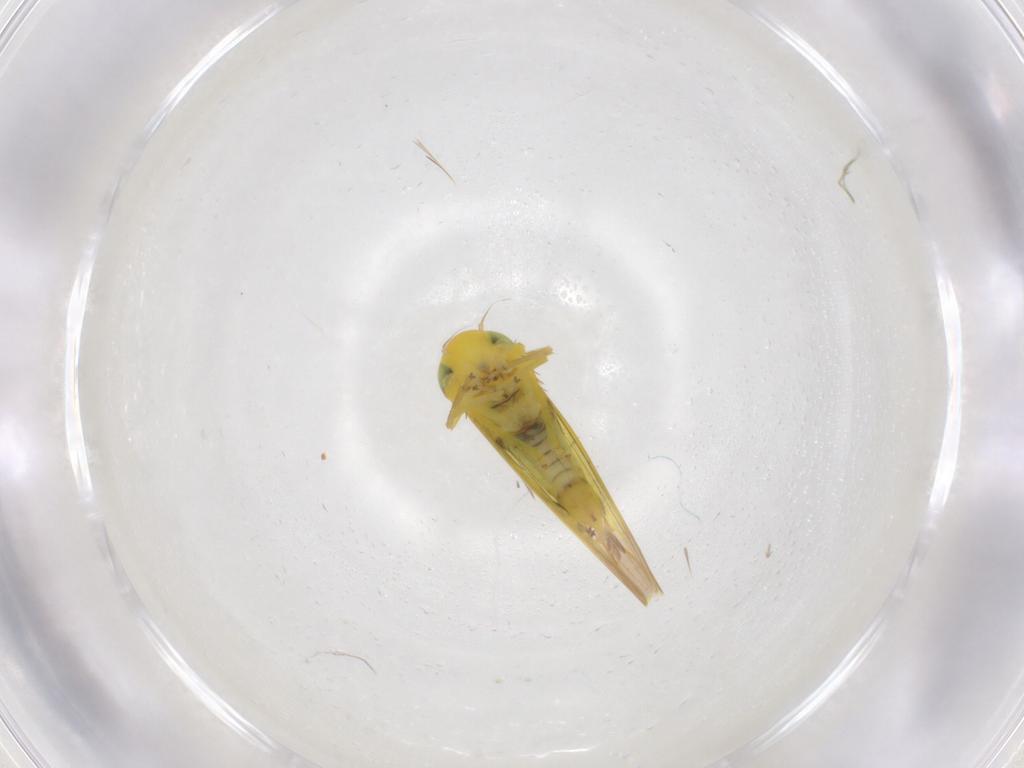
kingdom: Animalia
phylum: Arthropoda
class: Insecta
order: Hemiptera
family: Cicadellidae
